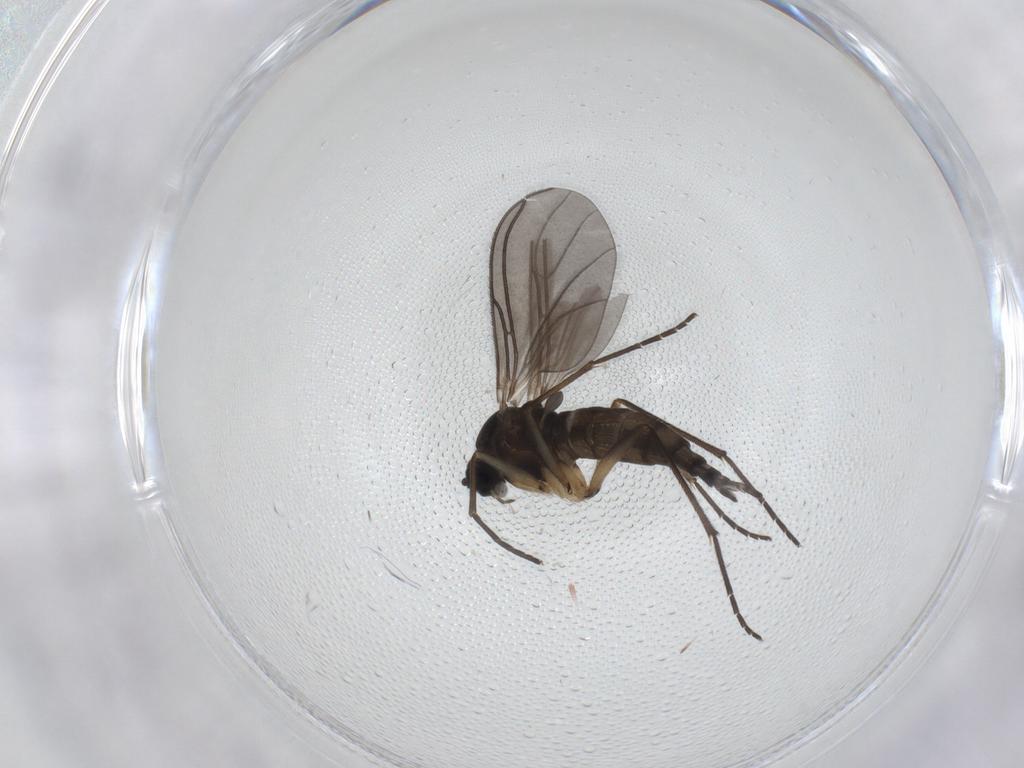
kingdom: Animalia
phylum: Arthropoda
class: Insecta
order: Diptera
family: Sciaridae
